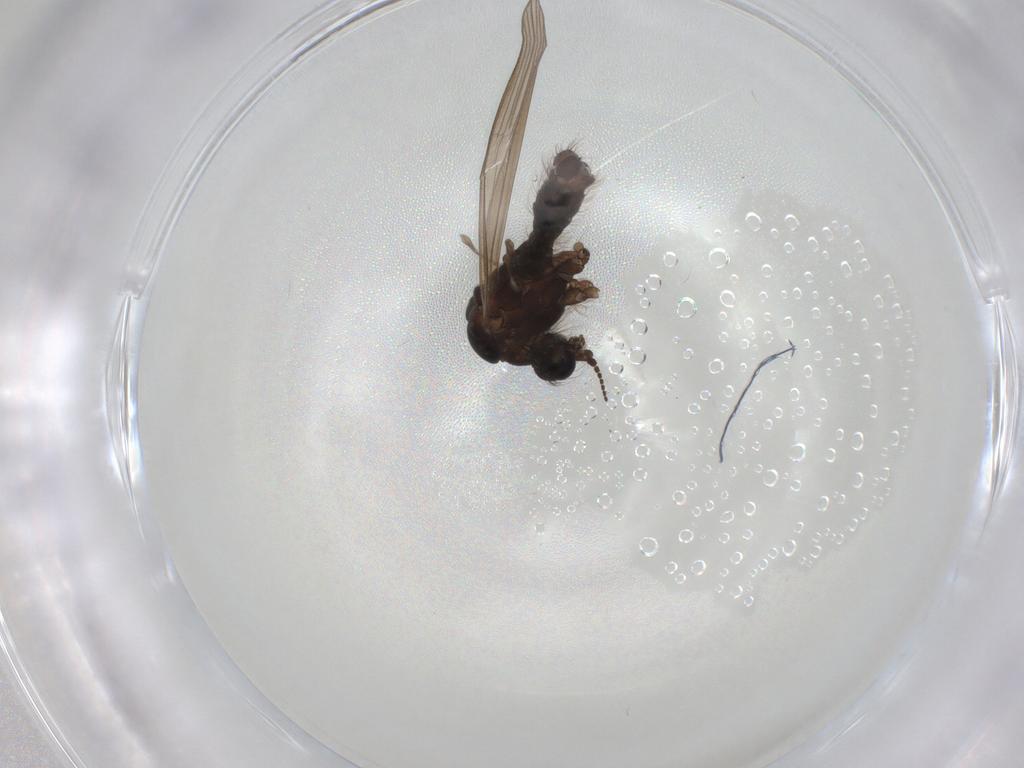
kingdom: Animalia
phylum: Arthropoda
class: Insecta
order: Diptera
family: Limoniidae
